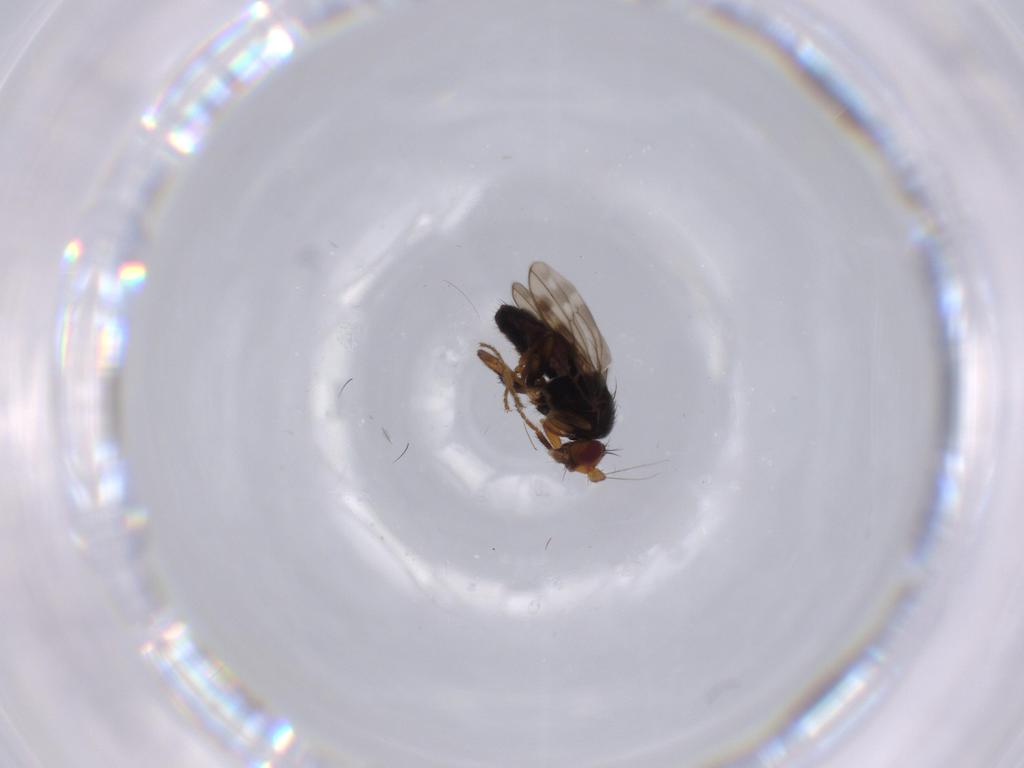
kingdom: Animalia
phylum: Arthropoda
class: Insecta
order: Diptera
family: Sphaeroceridae
